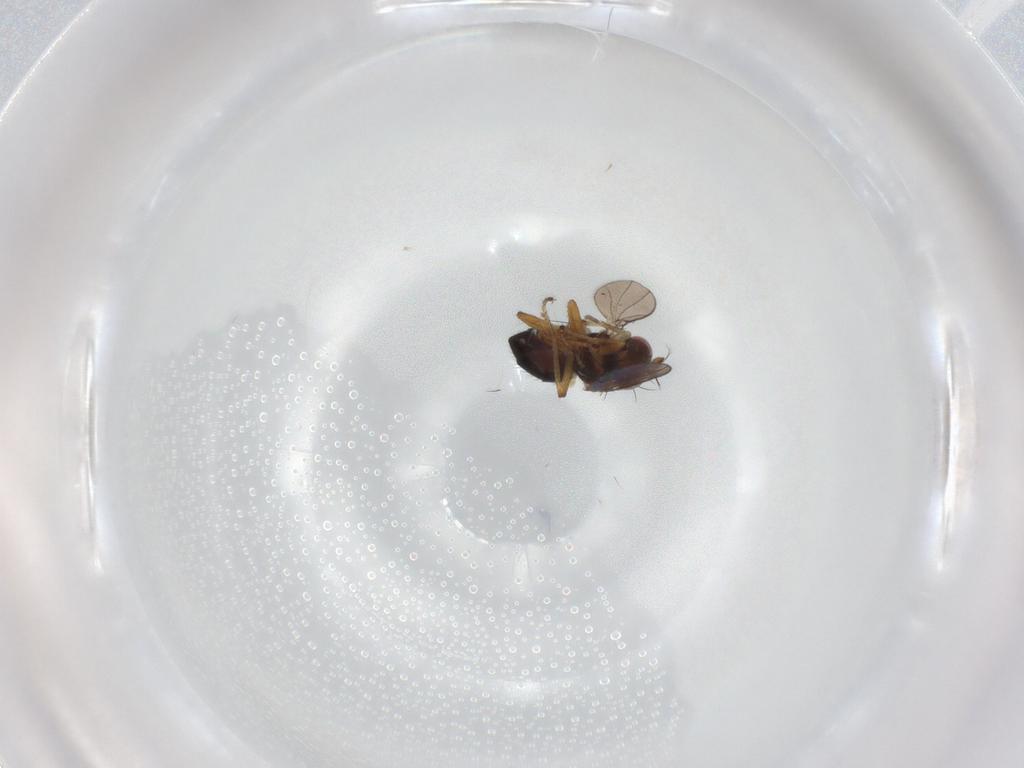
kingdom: Animalia
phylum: Arthropoda
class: Insecta
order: Diptera
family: Ephydridae
